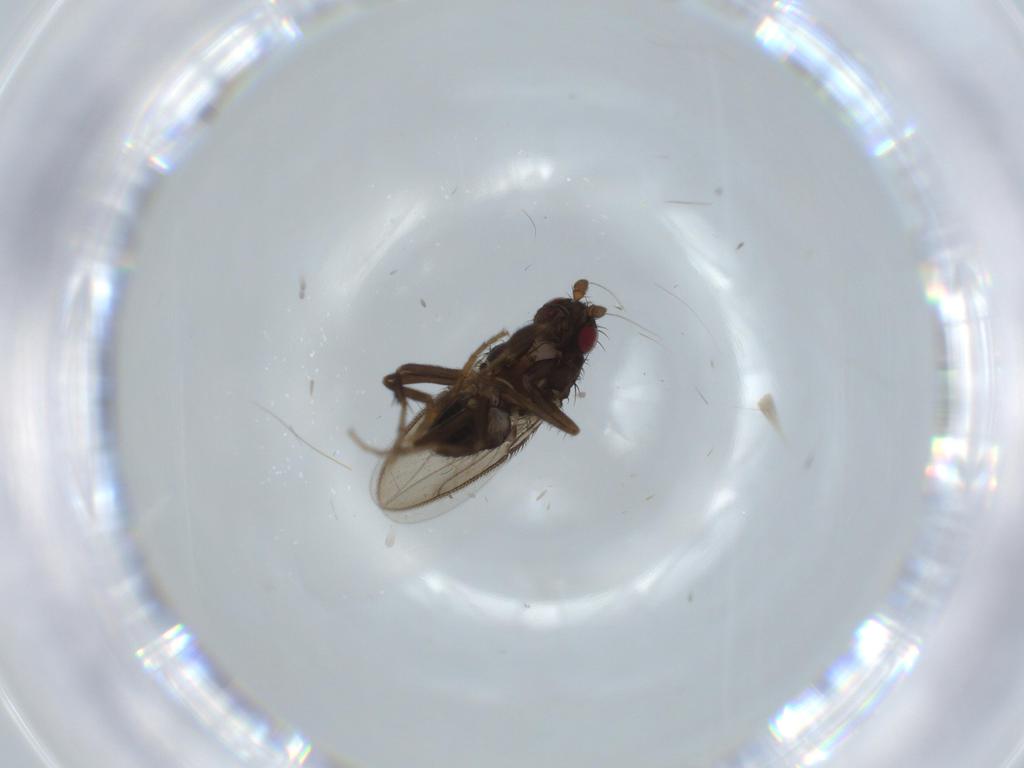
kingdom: Animalia
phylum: Arthropoda
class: Insecta
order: Diptera
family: Sphaeroceridae
